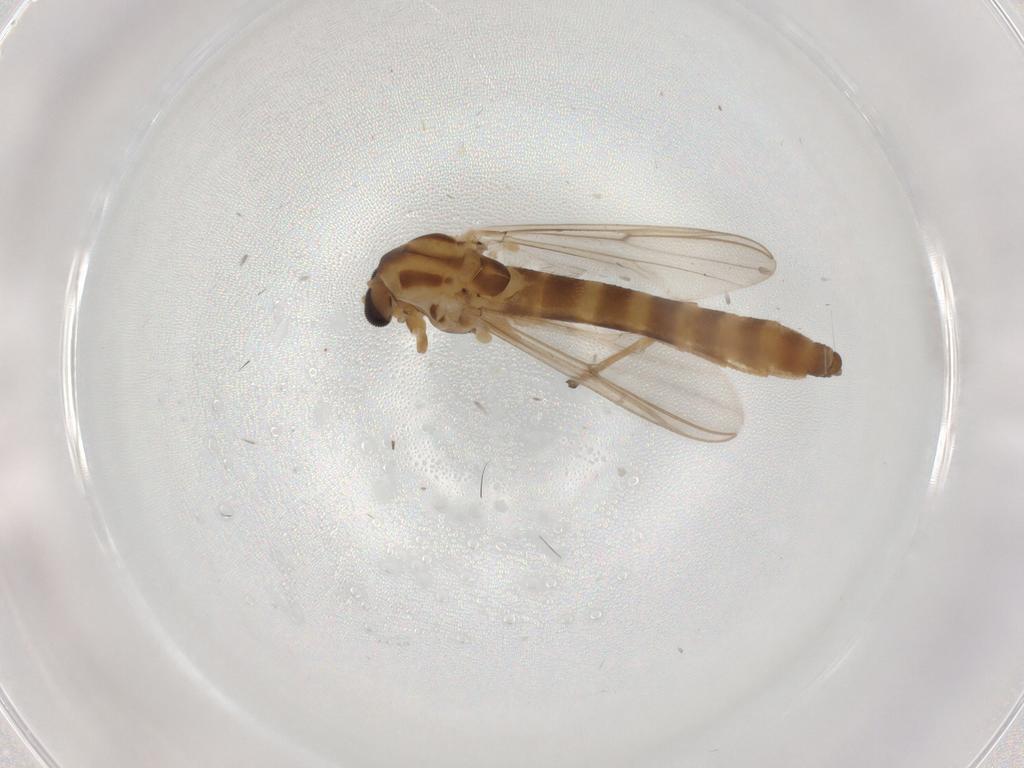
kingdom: Animalia
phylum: Arthropoda
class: Insecta
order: Diptera
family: Chironomidae
